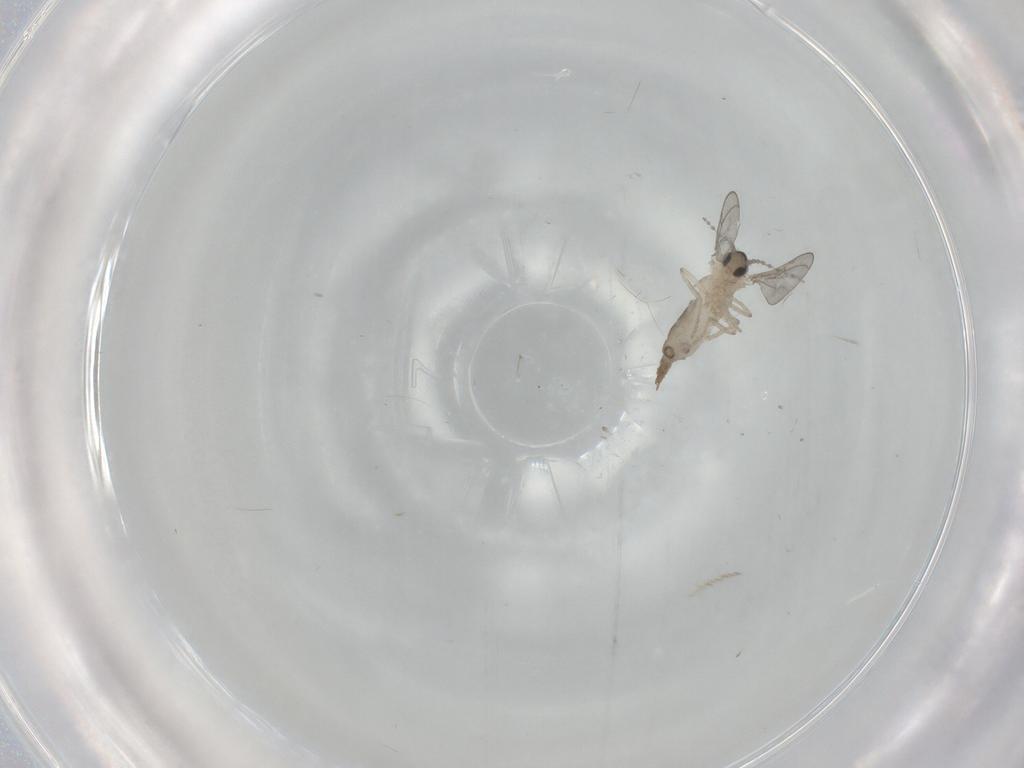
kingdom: Animalia
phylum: Arthropoda
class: Insecta
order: Diptera
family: Cecidomyiidae
